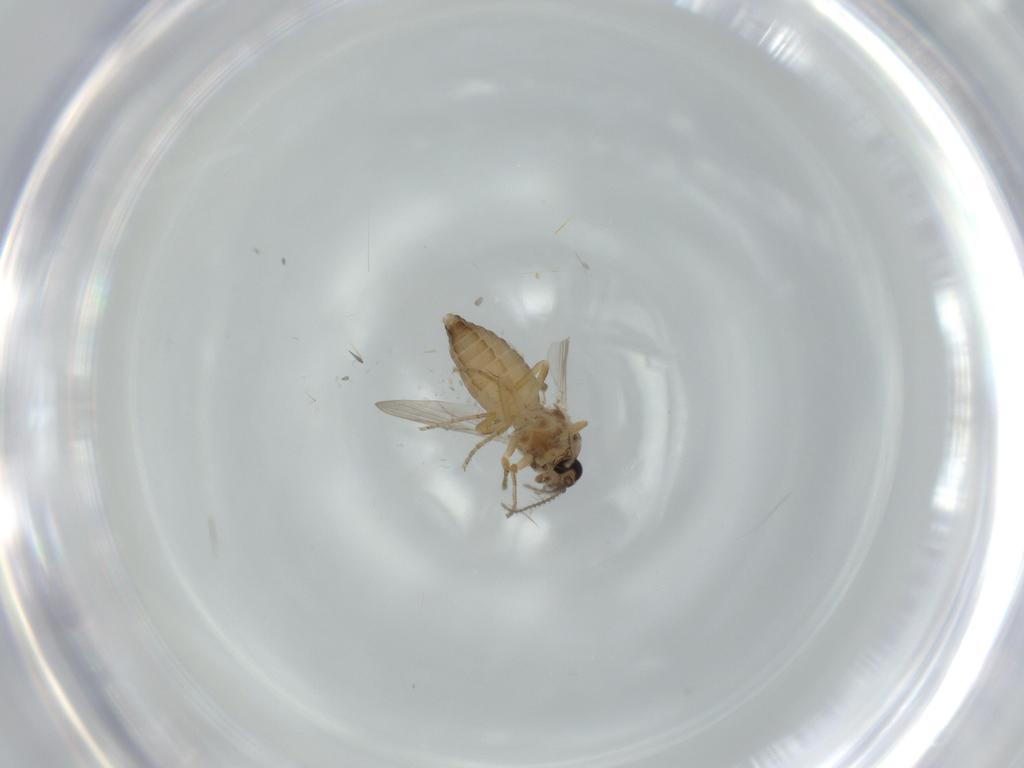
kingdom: Animalia
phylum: Arthropoda
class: Insecta
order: Diptera
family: Ceratopogonidae
